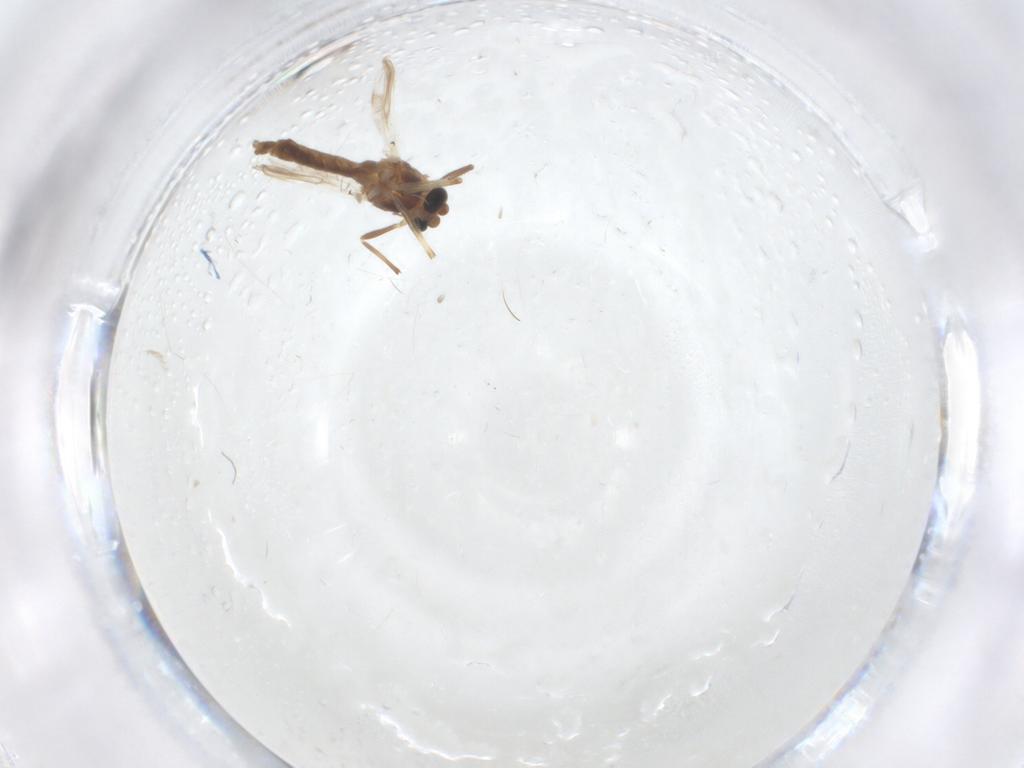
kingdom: Animalia
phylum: Arthropoda
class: Insecta
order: Diptera
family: Chironomidae
